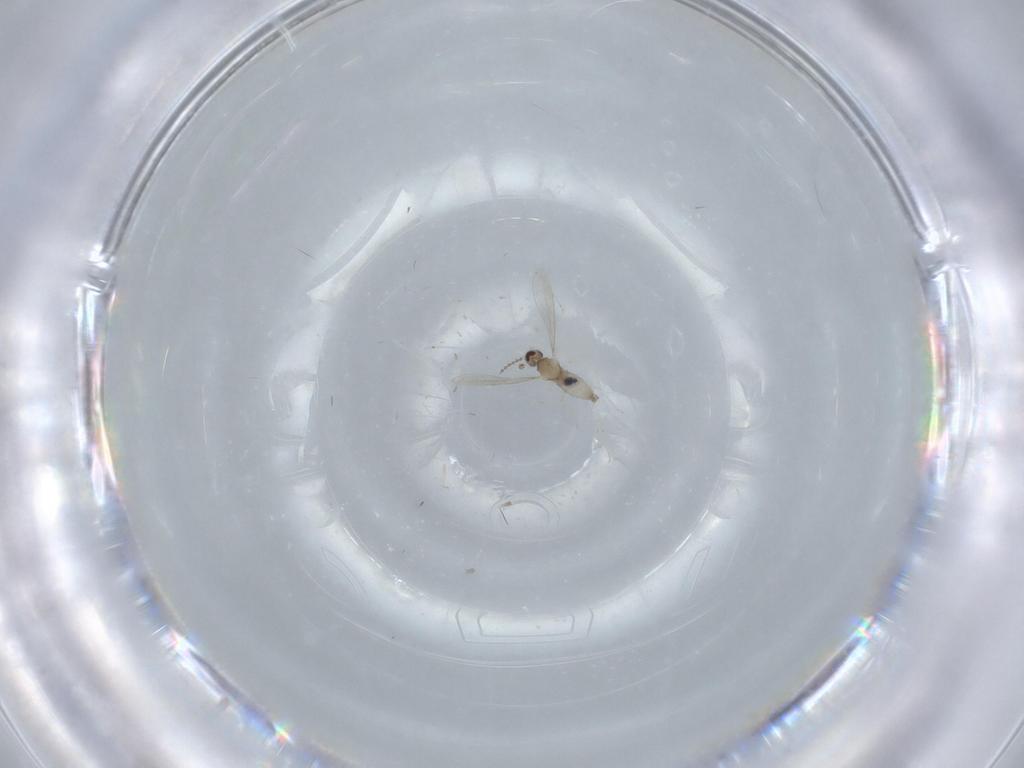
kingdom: Animalia
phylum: Arthropoda
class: Insecta
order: Diptera
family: Cecidomyiidae
